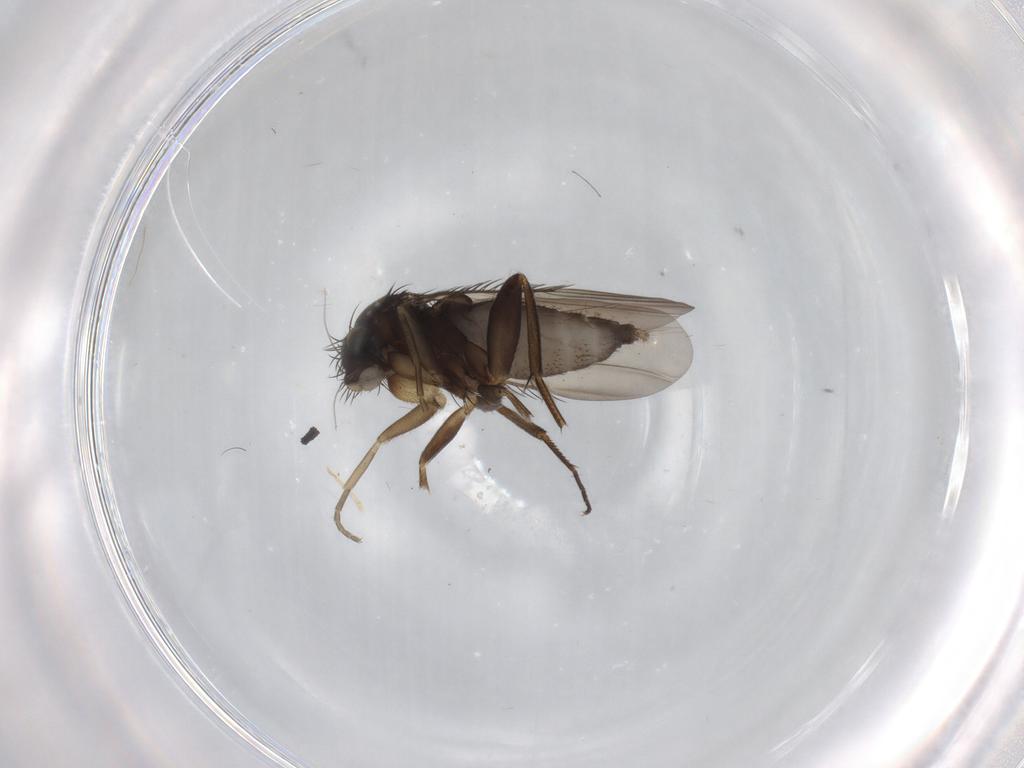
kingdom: Animalia
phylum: Arthropoda
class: Insecta
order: Diptera
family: Phoridae
